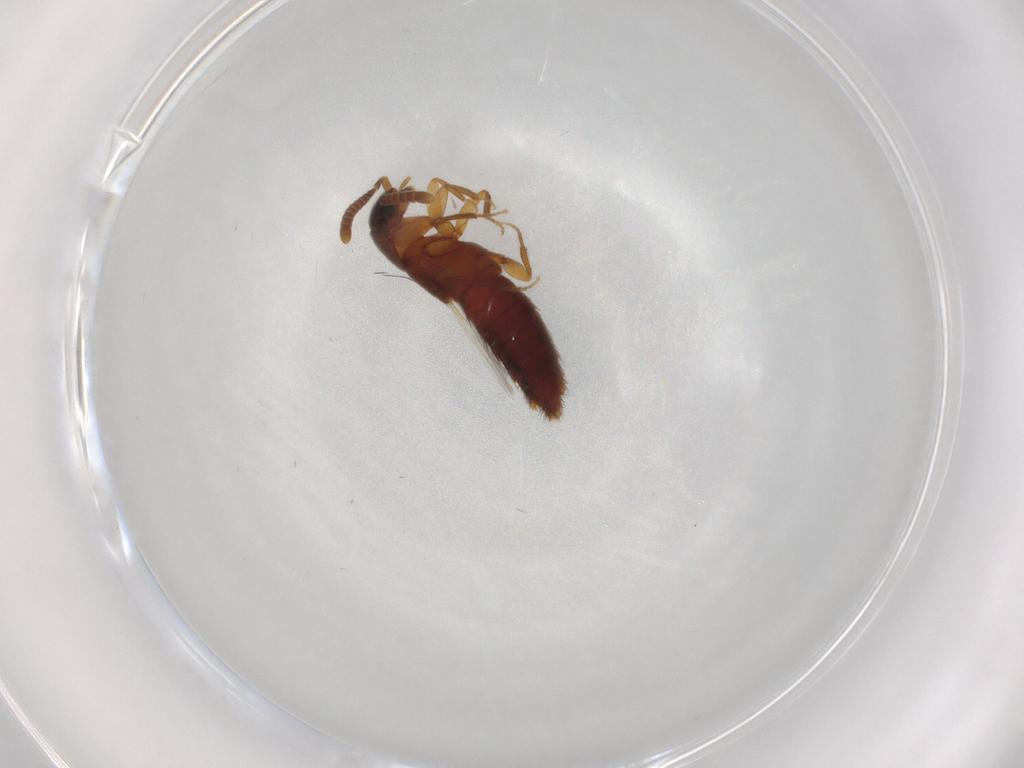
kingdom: Animalia
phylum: Arthropoda
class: Insecta
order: Coleoptera
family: Staphylinidae
